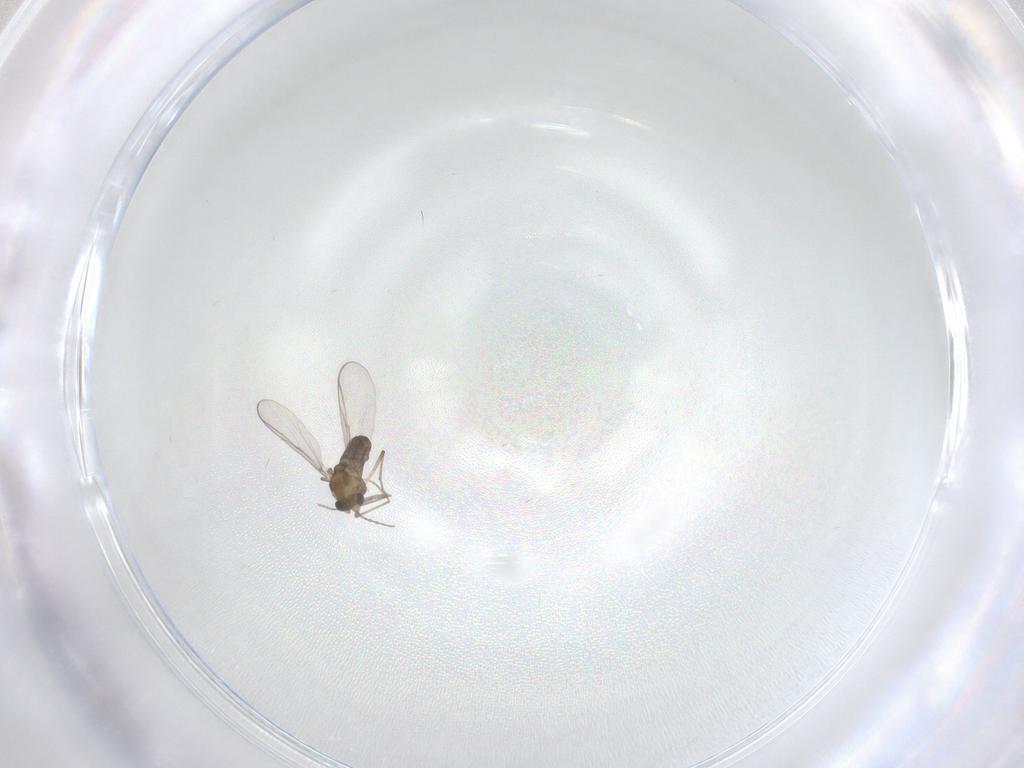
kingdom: Animalia
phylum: Arthropoda
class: Insecta
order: Diptera
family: Chironomidae
